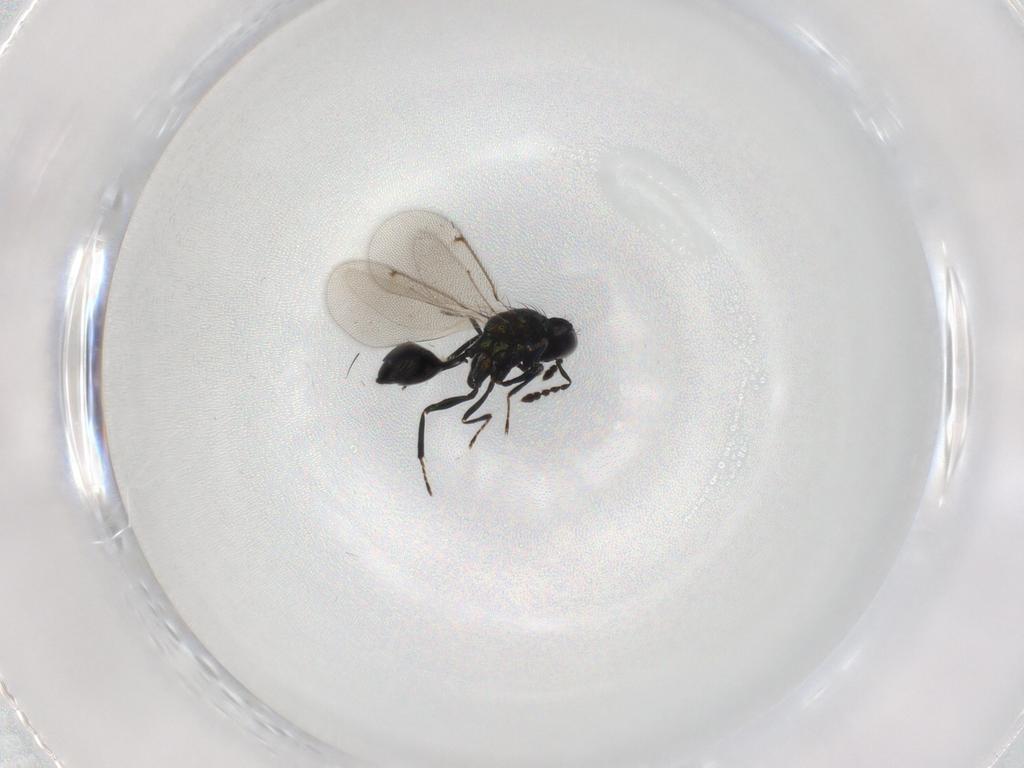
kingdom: Animalia
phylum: Arthropoda
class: Insecta
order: Hymenoptera
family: Eulophidae
